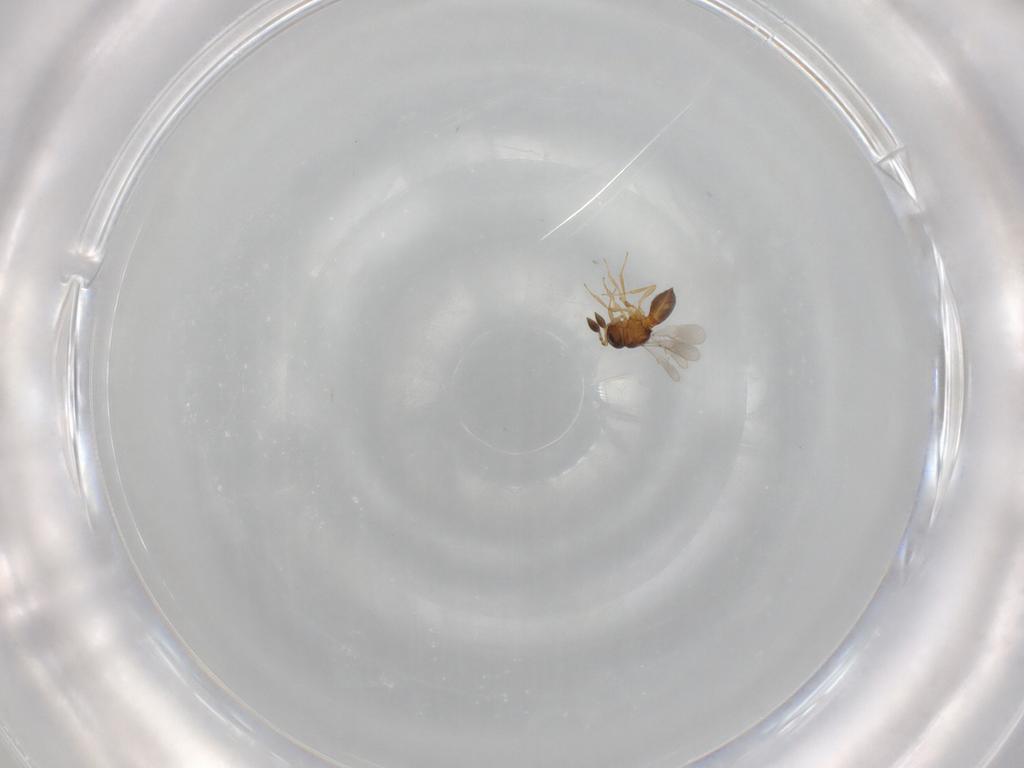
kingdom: Animalia
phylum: Arthropoda
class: Insecta
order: Hymenoptera
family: Scelionidae
